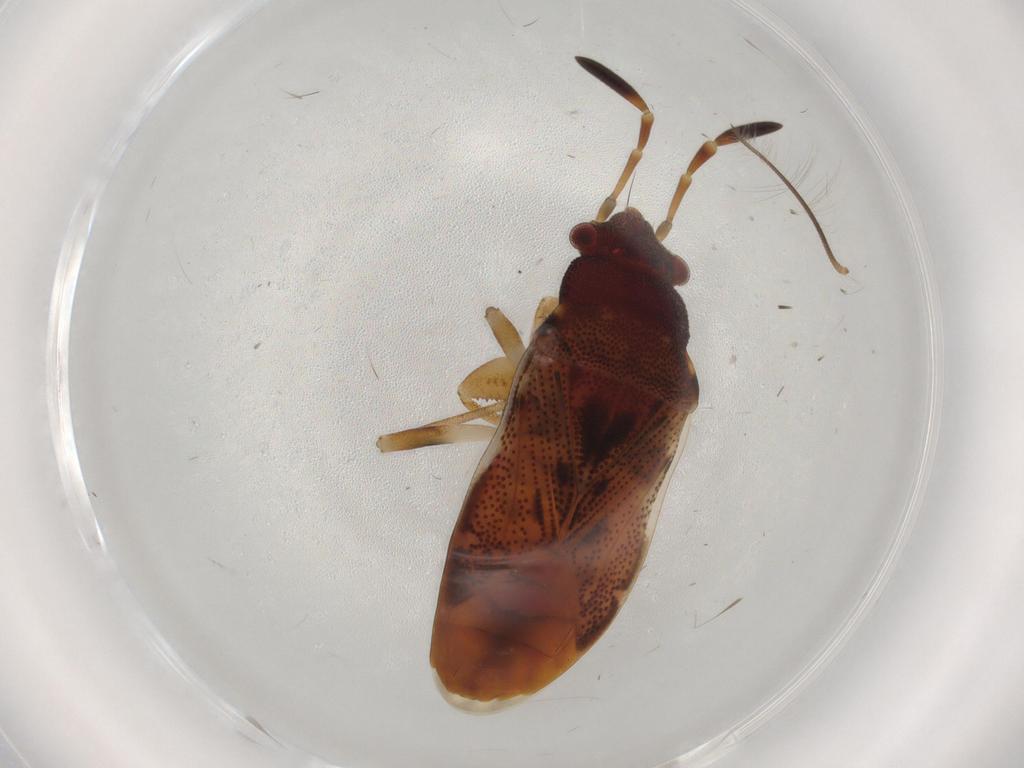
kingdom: Animalia
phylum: Arthropoda
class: Insecta
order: Hemiptera
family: Rhyparochromidae
